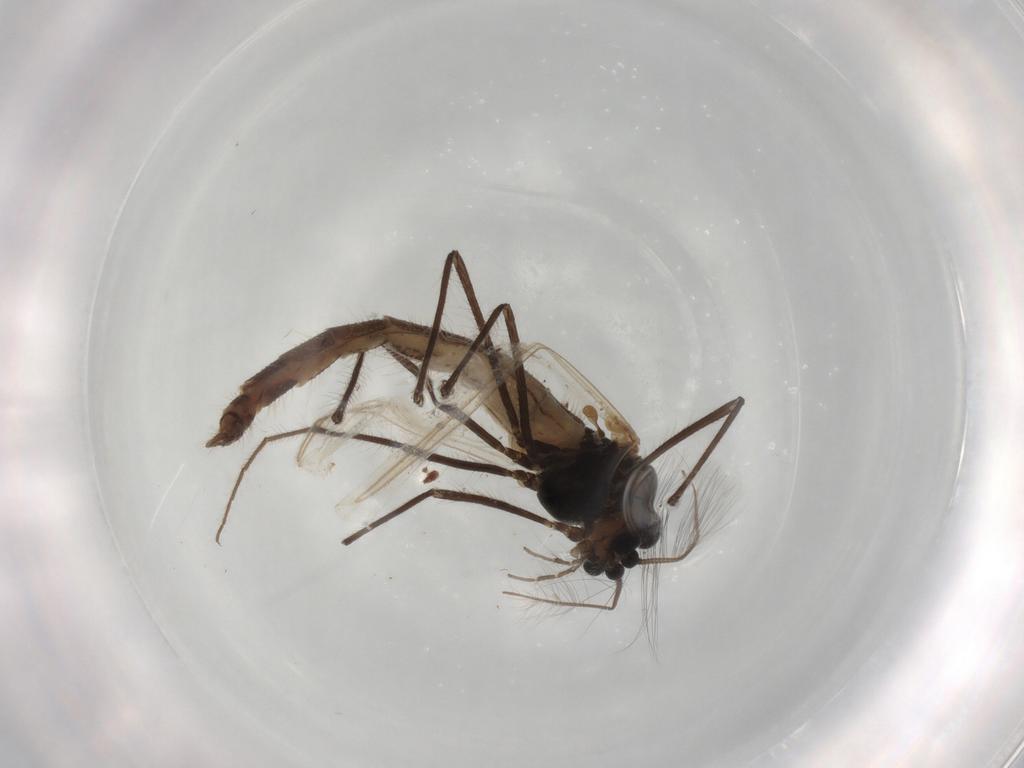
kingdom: Animalia
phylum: Arthropoda
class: Insecta
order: Diptera
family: Chironomidae
